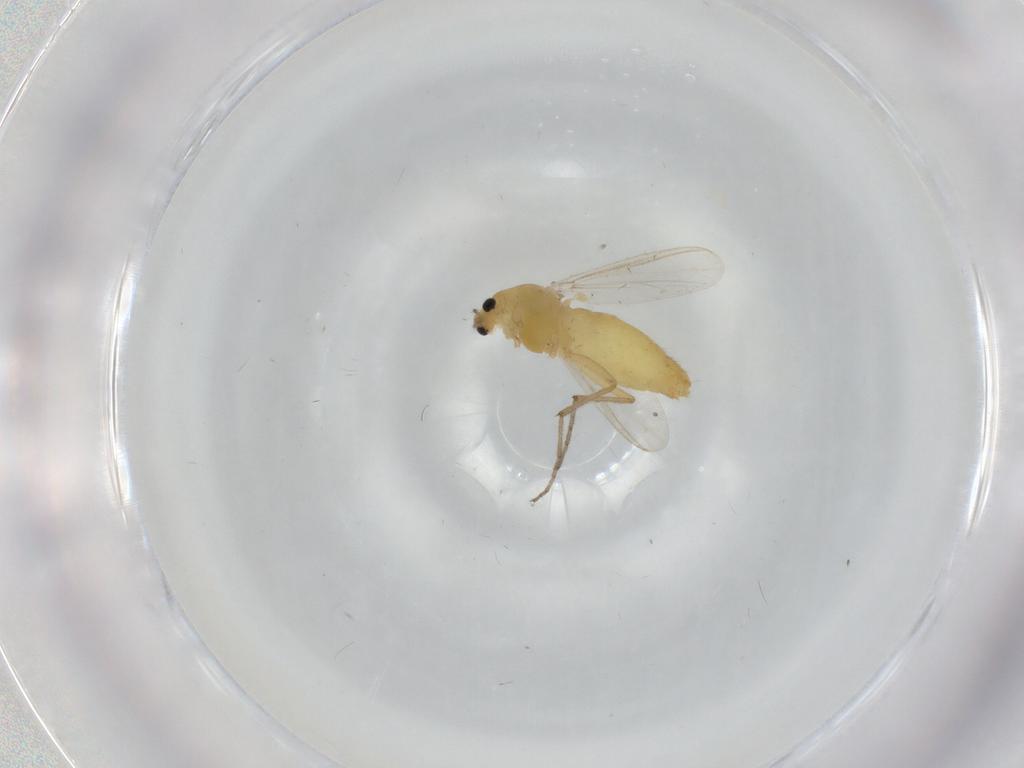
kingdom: Animalia
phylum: Arthropoda
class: Insecta
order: Diptera
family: Chironomidae
